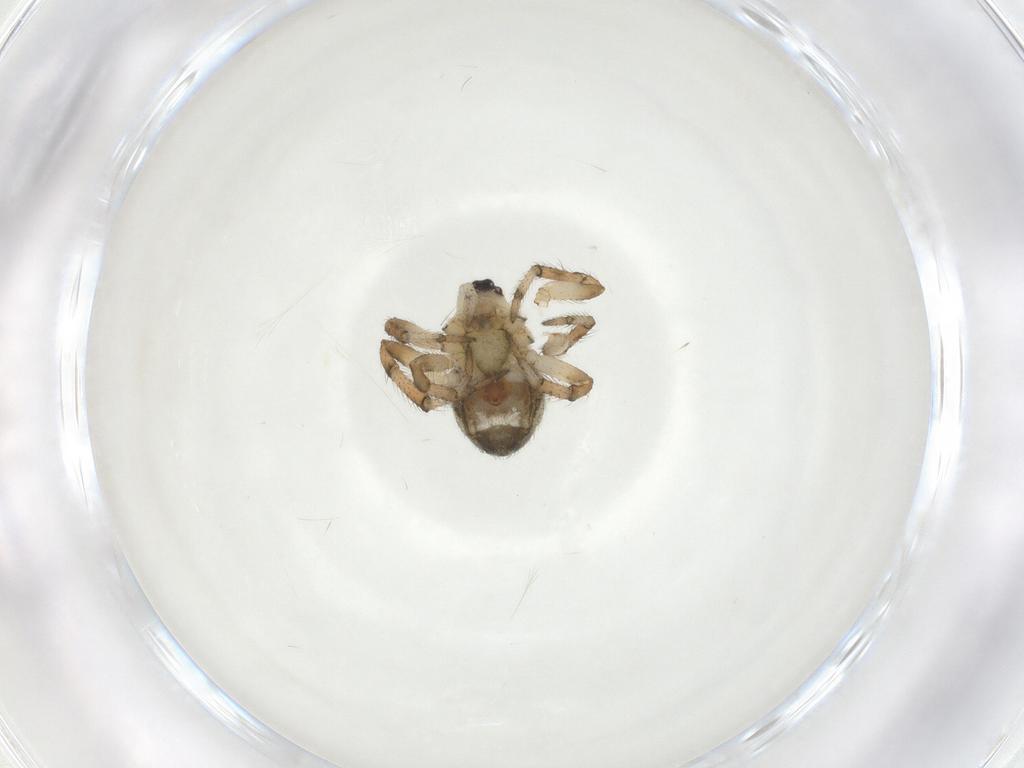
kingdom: Animalia
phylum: Arthropoda
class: Arachnida
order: Araneae
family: Theridiidae
